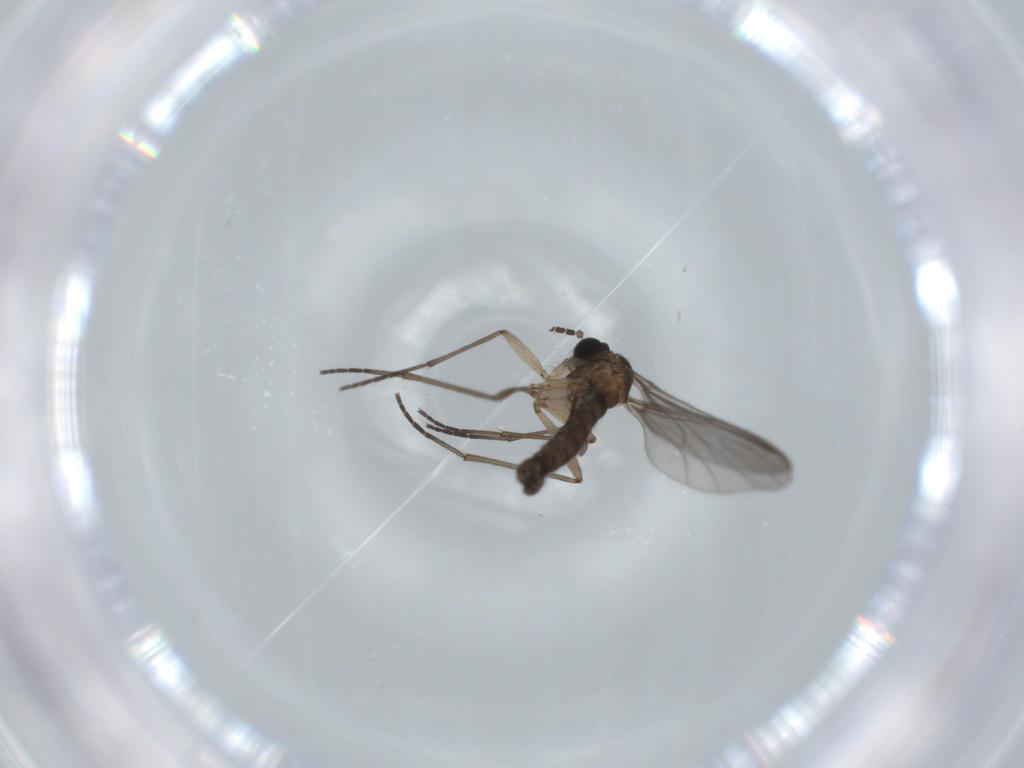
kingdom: Animalia
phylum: Arthropoda
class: Insecta
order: Diptera
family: Sciaridae
